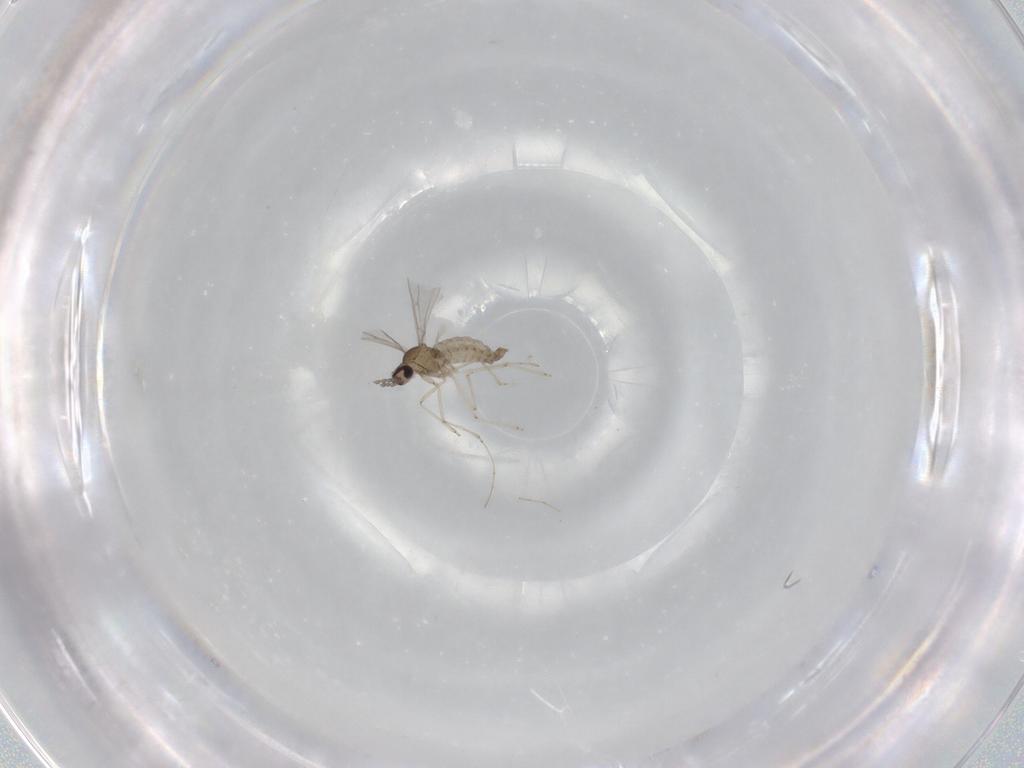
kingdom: Animalia
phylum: Arthropoda
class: Insecta
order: Diptera
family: Cecidomyiidae
